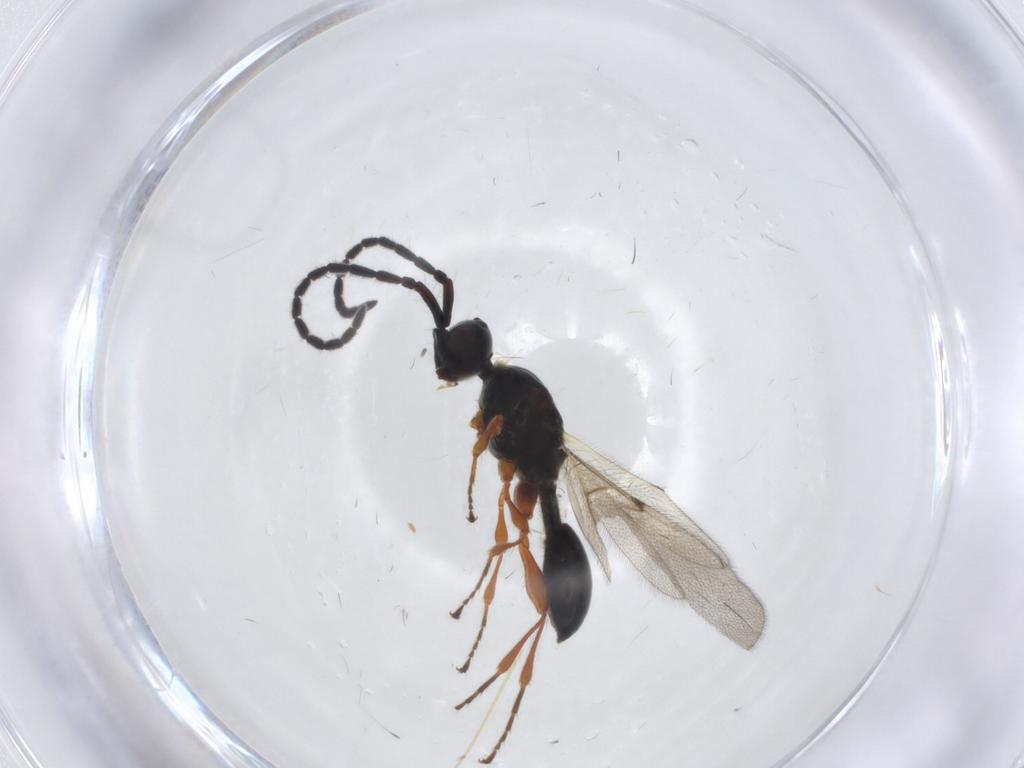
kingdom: Animalia
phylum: Arthropoda
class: Insecta
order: Hymenoptera
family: Diapriidae
